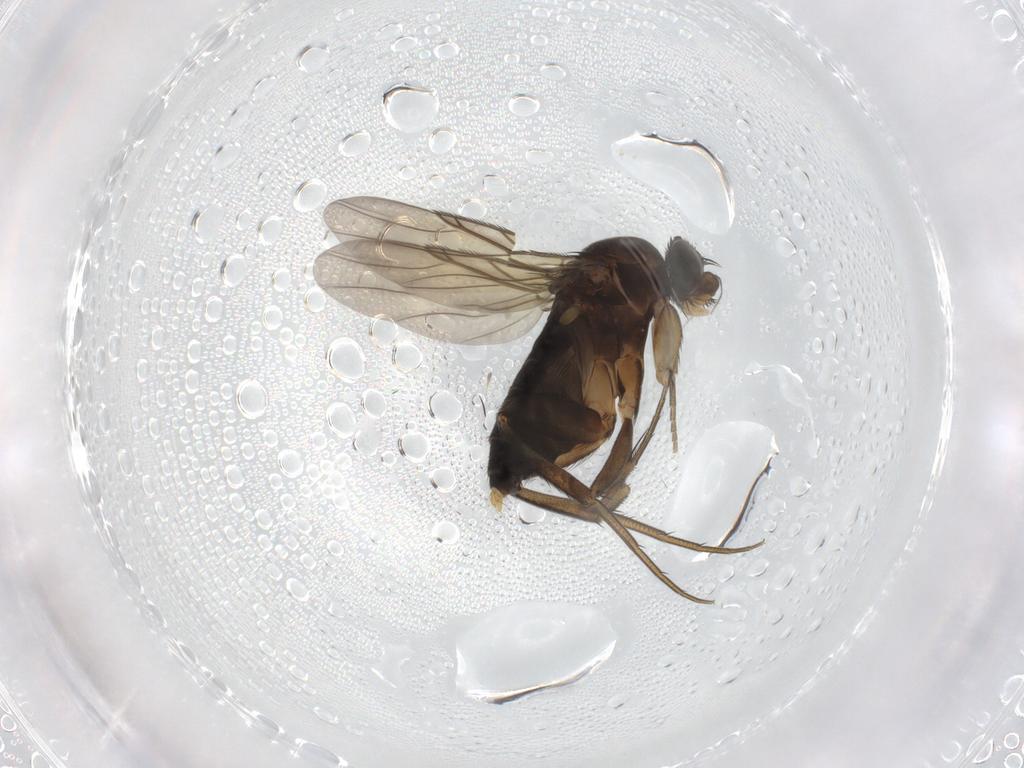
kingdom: Animalia
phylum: Arthropoda
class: Insecta
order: Diptera
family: Phoridae
